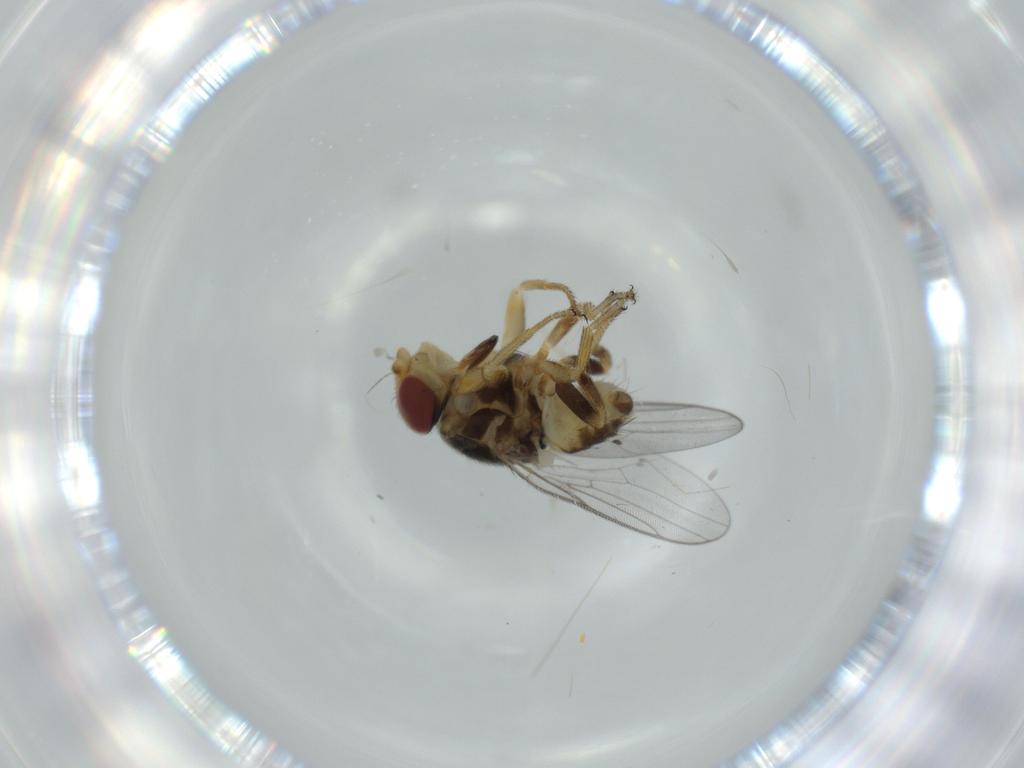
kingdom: Animalia
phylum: Arthropoda
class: Insecta
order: Diptera
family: Chloropidae
